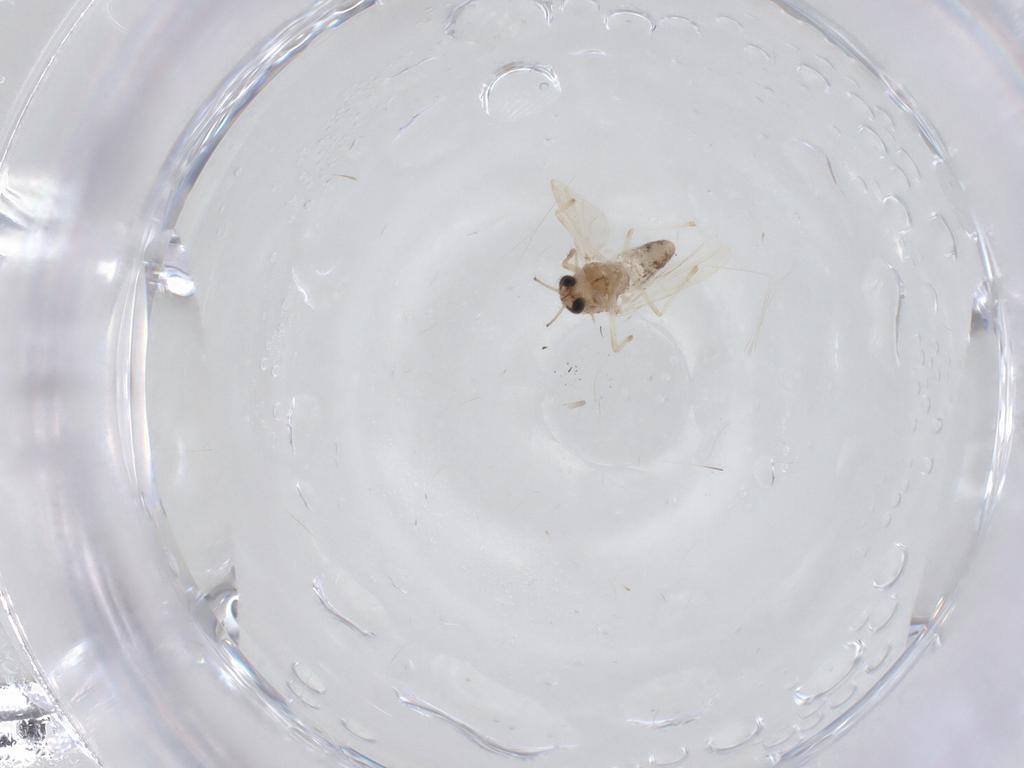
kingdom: Animalia
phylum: Arthropoda
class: Insecta
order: Diptera
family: Chironomidae
